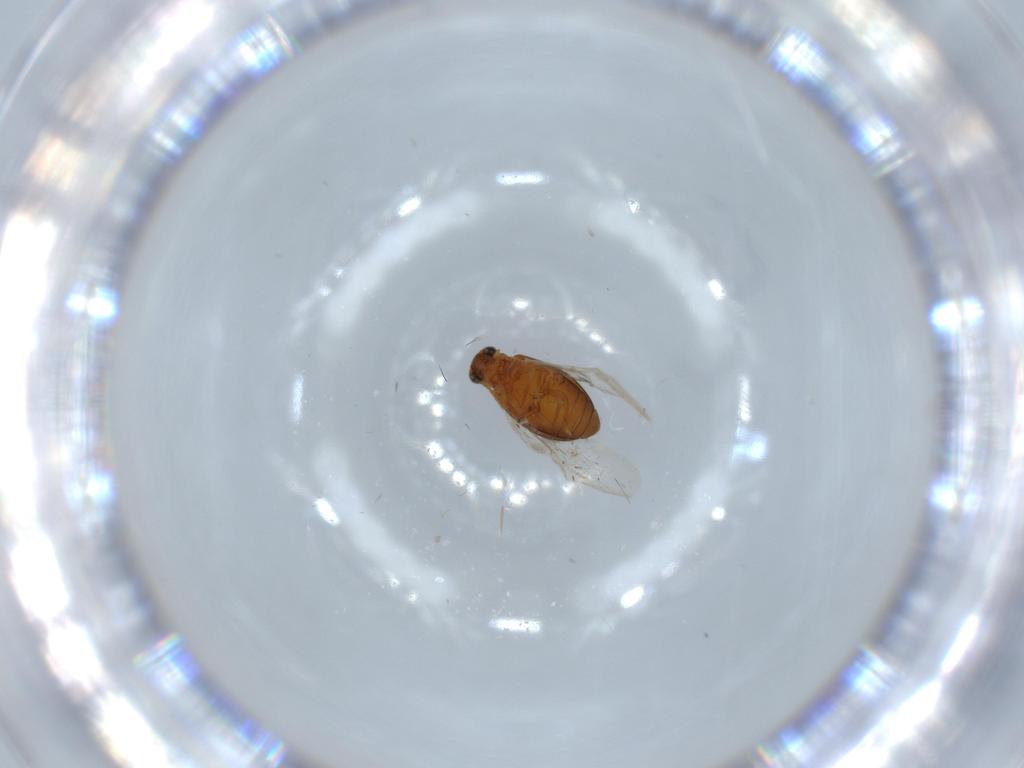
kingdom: Animalia
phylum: Arthropoda
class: Insecta
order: Coleoptera
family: Aderidae
